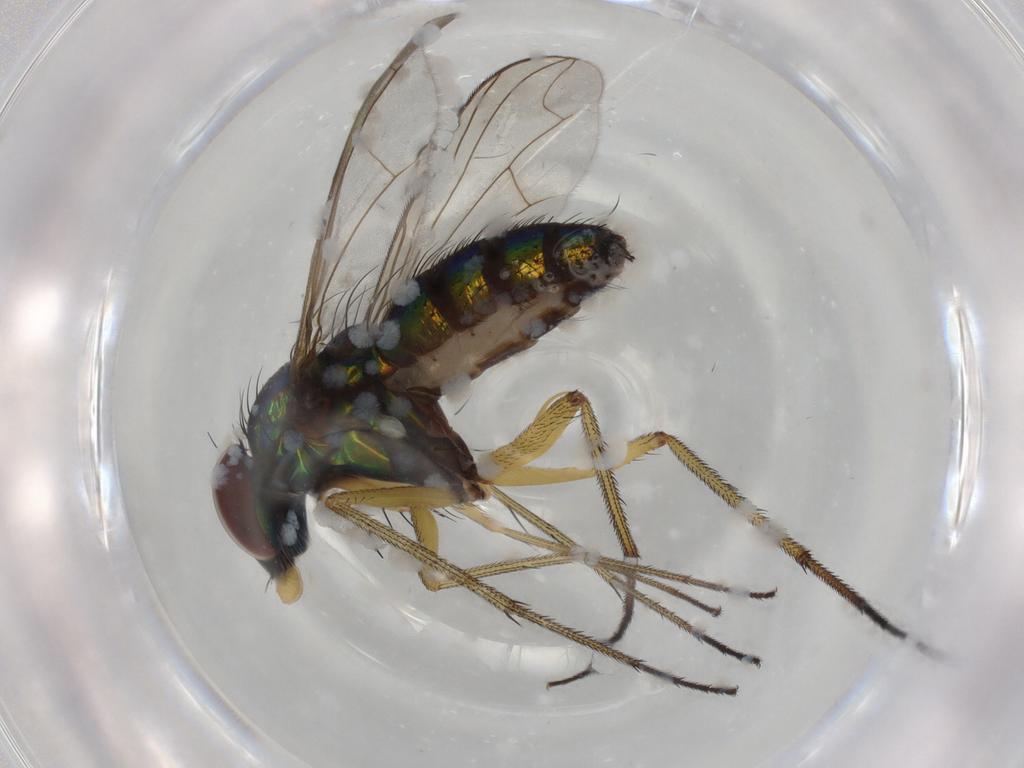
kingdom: Animalia
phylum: Arthropoda
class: Insecta
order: Diptera
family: Dolichopodidae
